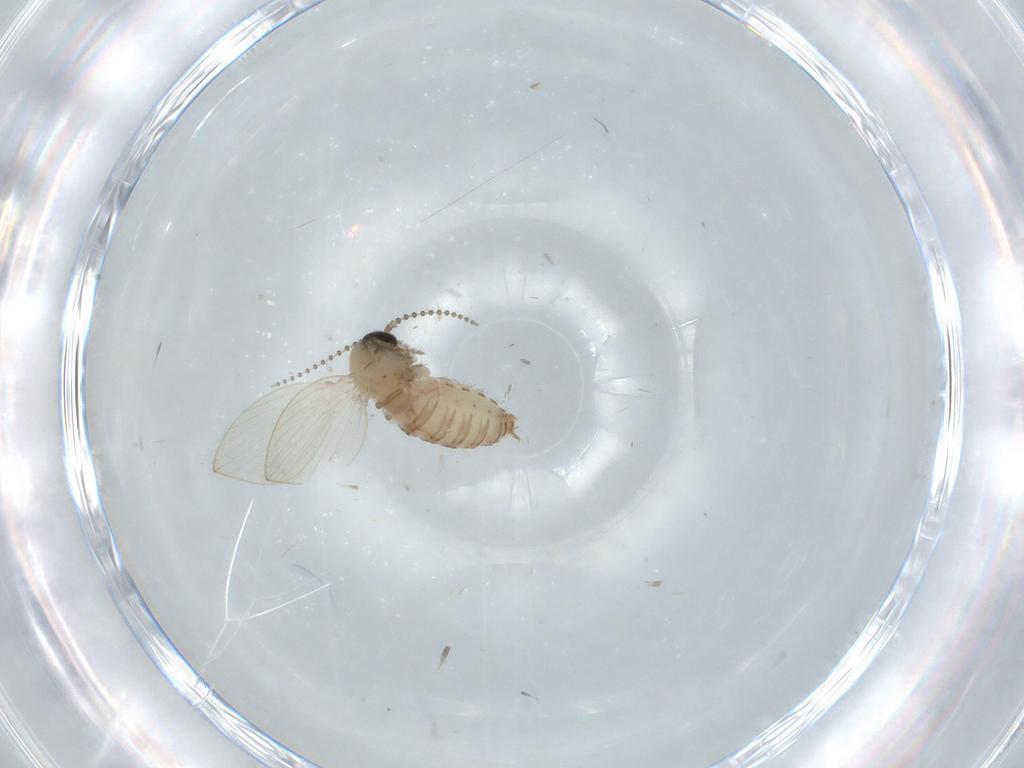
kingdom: Animalia
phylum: Arthropoda
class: Insecta
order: Diptera
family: Psychodidae
